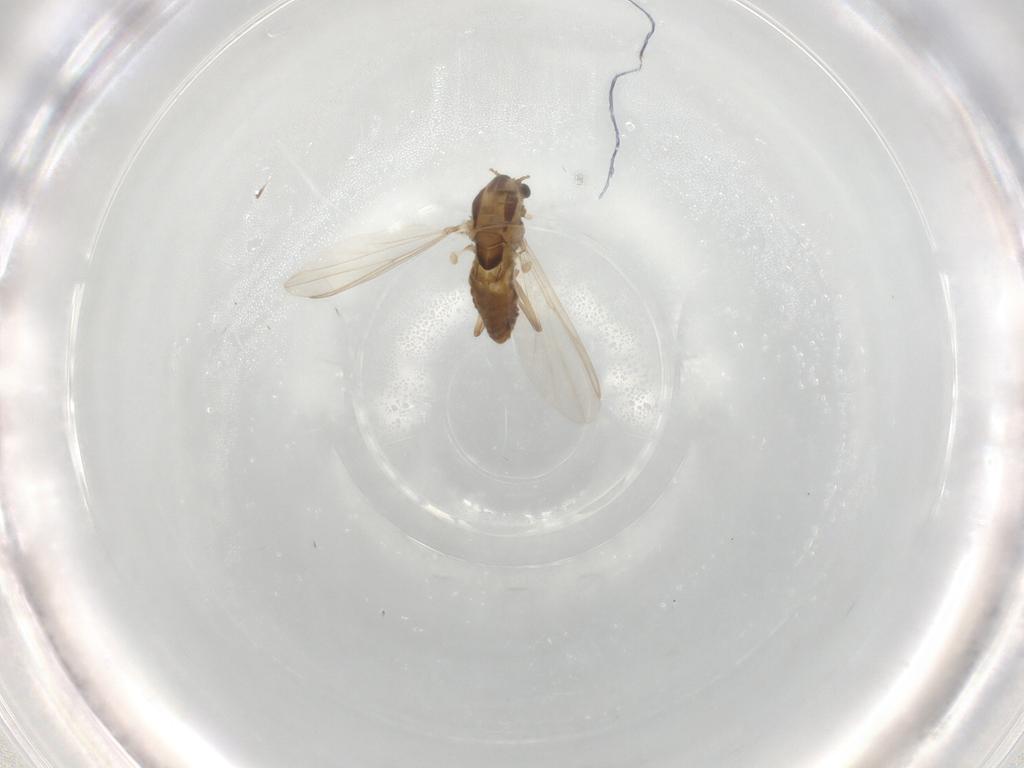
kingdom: Animalia
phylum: Arthropoda
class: Insecta
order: Diptera
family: Chironomidae
